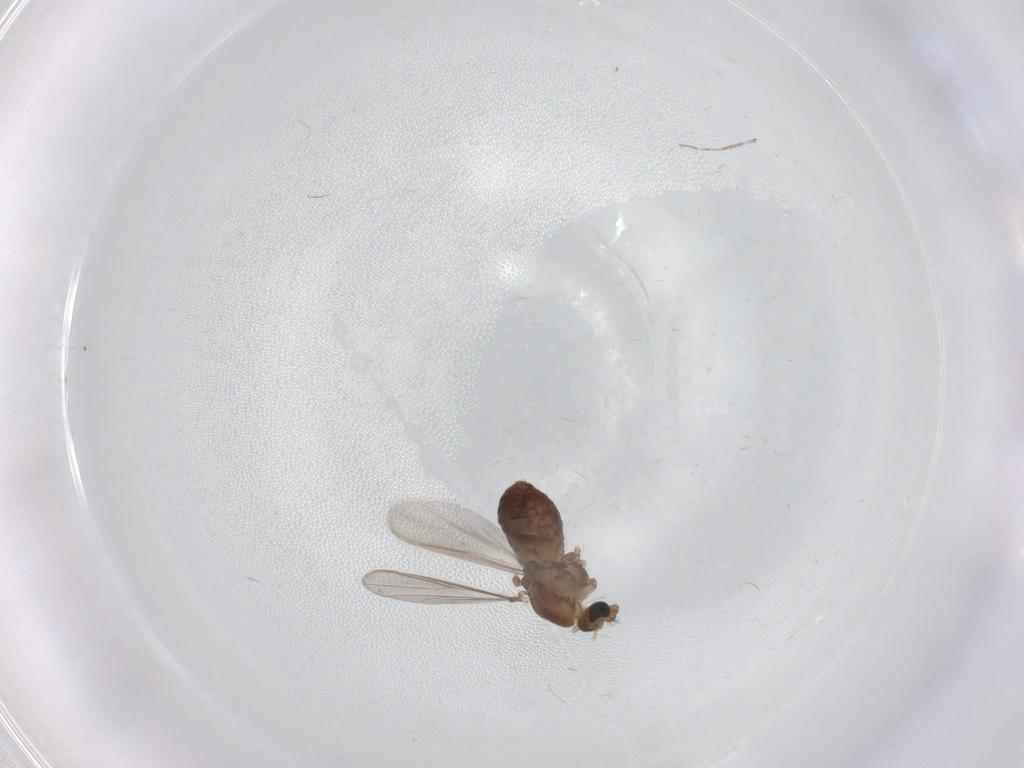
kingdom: Animalia
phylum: Arthropoda
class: Insecta
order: Diptera
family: Chironomidae
